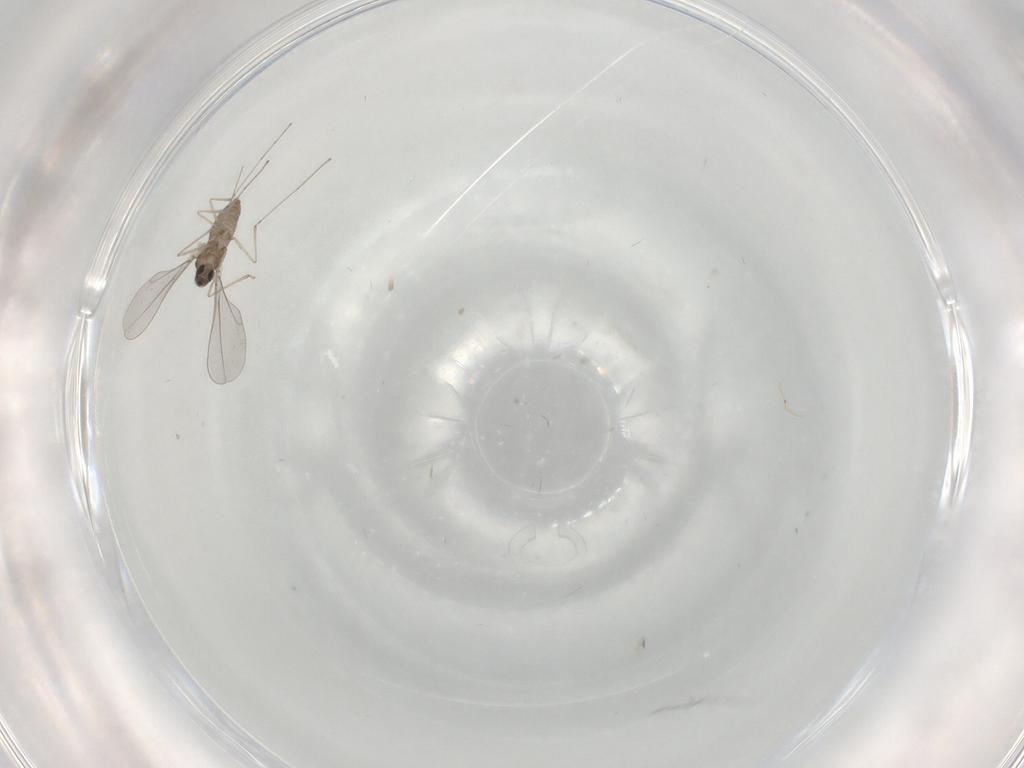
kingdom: Animalia
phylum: Arthropoda
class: Insecta
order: Diptera
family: Cecidomyiidae
